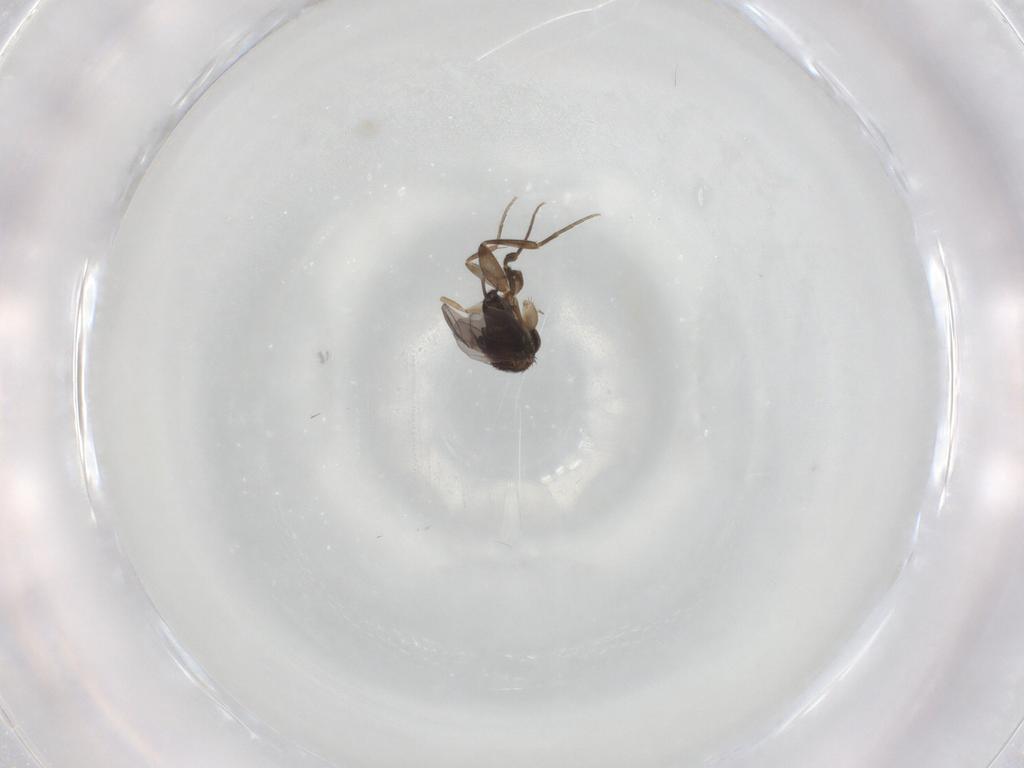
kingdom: Animalia
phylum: Arthropoda
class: Insecta
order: Diptera
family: Phoridae
